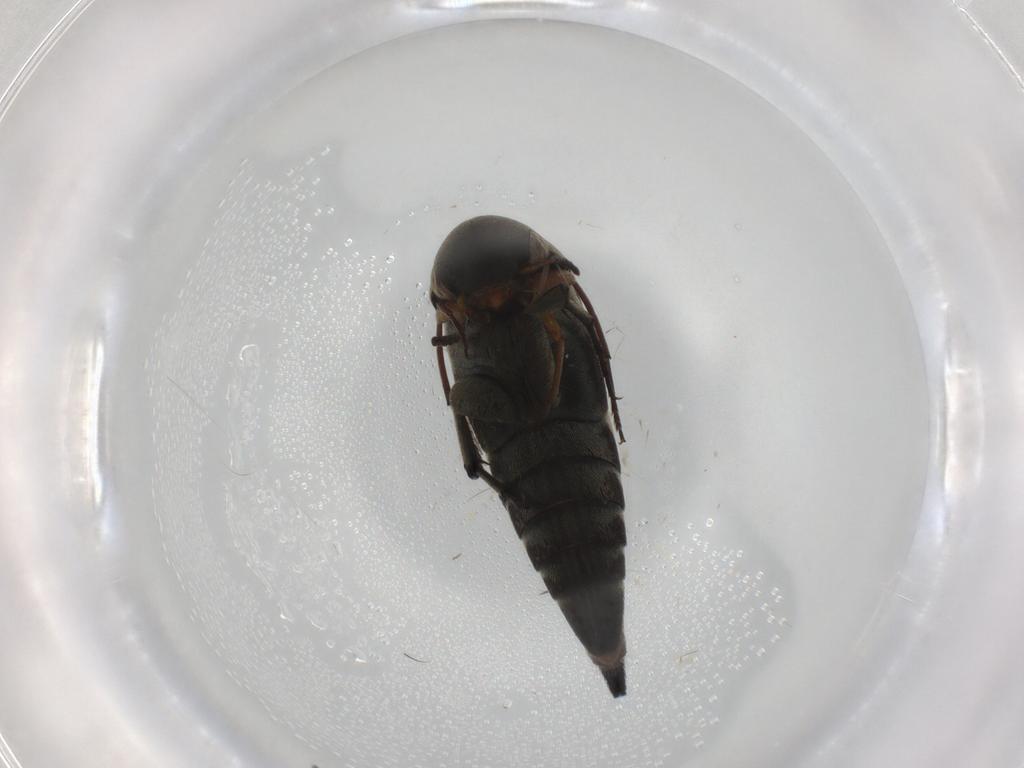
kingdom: Animalia
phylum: Arthropoda
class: Insecta
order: Coleoptera
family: Mordellidae
